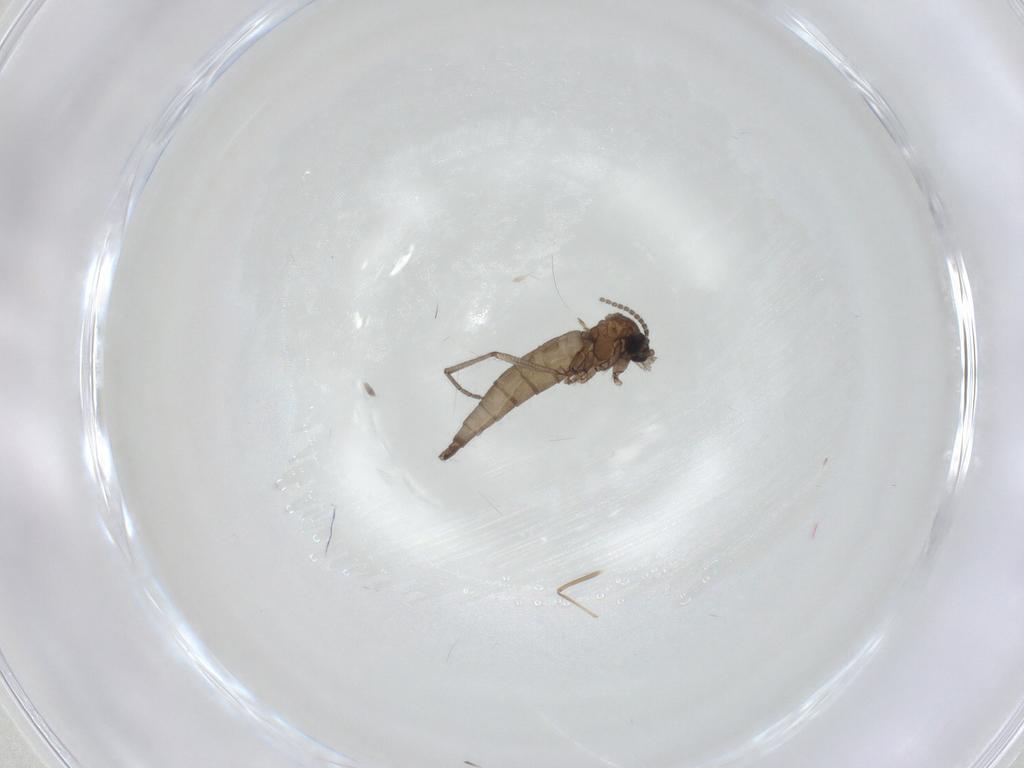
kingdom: Animalia
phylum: Arthropoda
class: Insecta
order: Diptera
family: Sciaridae
